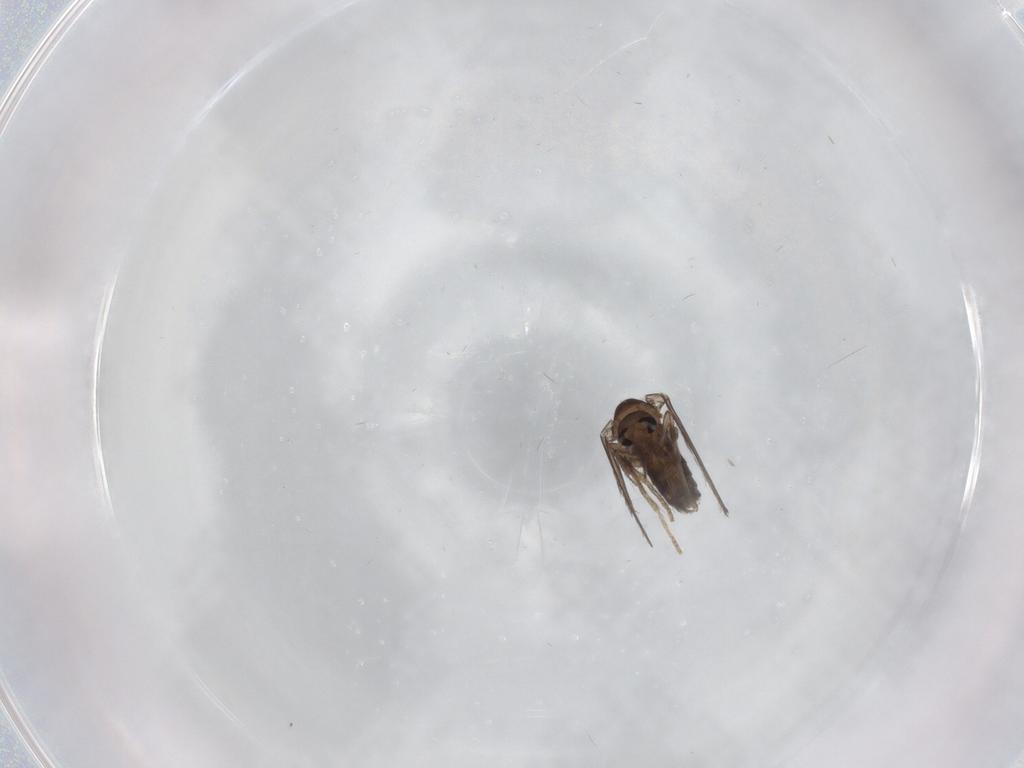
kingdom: Animalia
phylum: Arthropoda
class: Insecta
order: Diptera
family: Psychodidae
